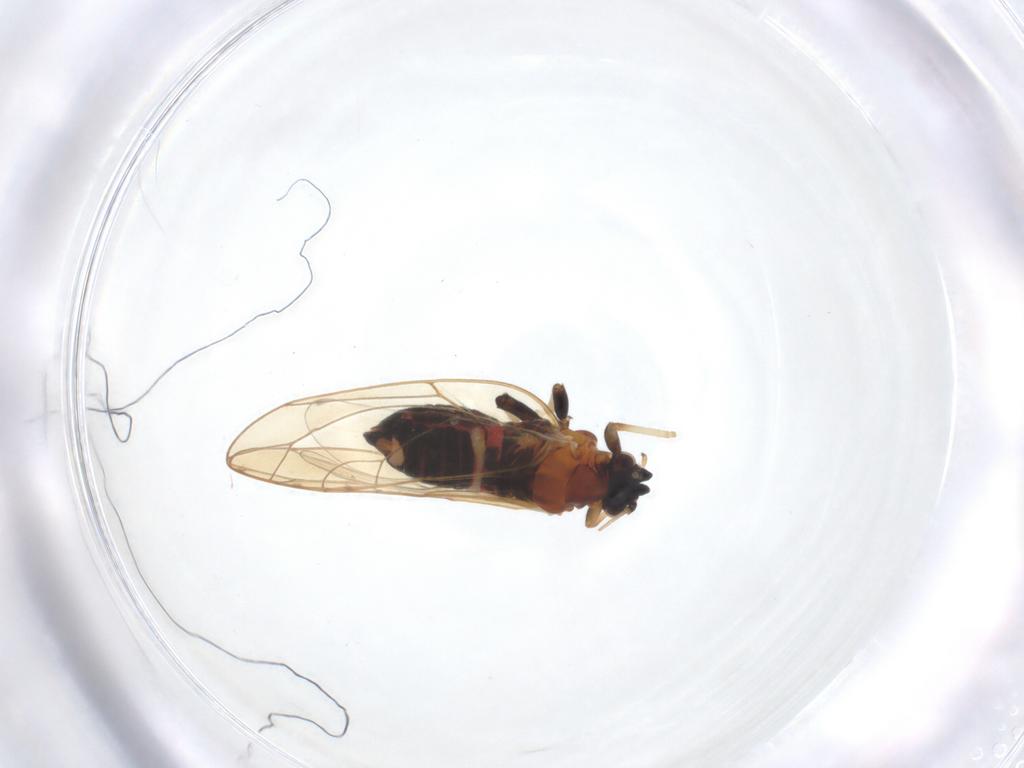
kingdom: Animalia
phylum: Arthropoda
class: Insecta
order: Hemiptera
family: Triozidae
